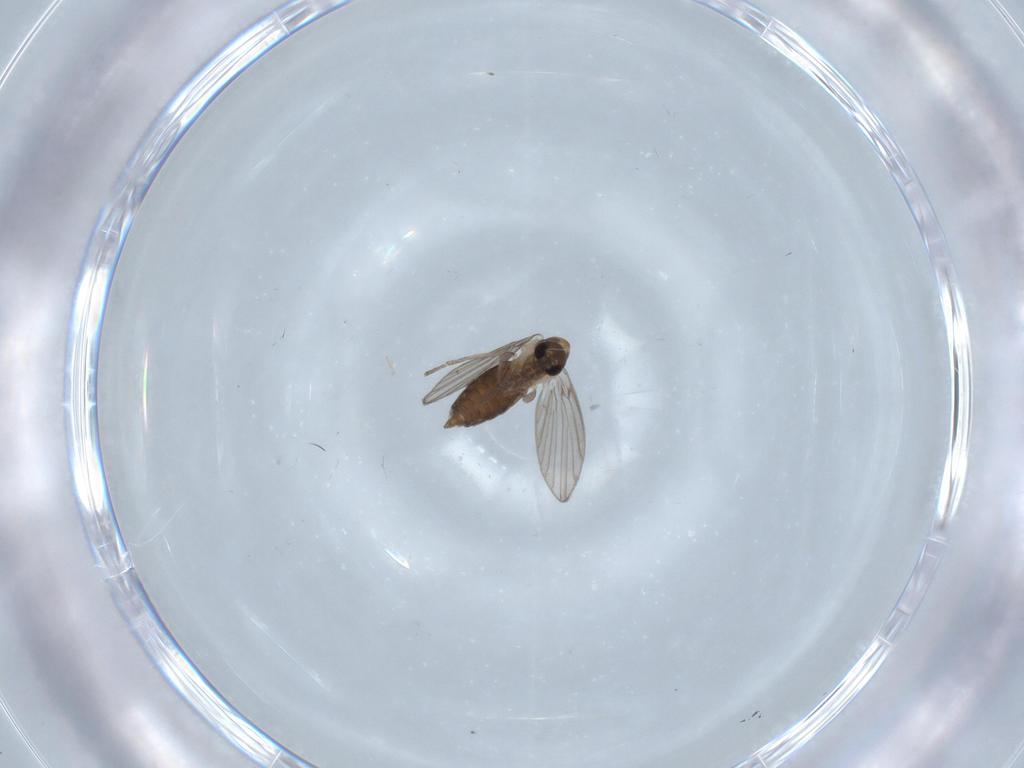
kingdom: Animalia
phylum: Arthropoda
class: Insecta
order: Diptera
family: Psychodidae
